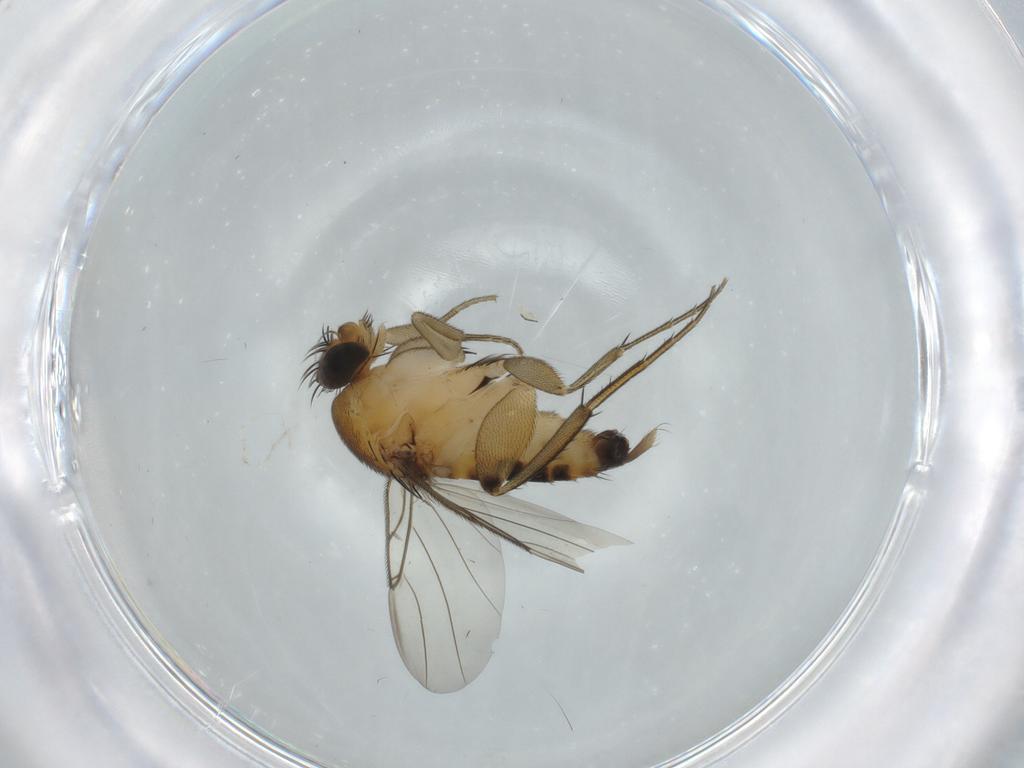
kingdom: Animalia
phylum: Arthropoda
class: Insecta
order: Diptera
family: Phoridae
